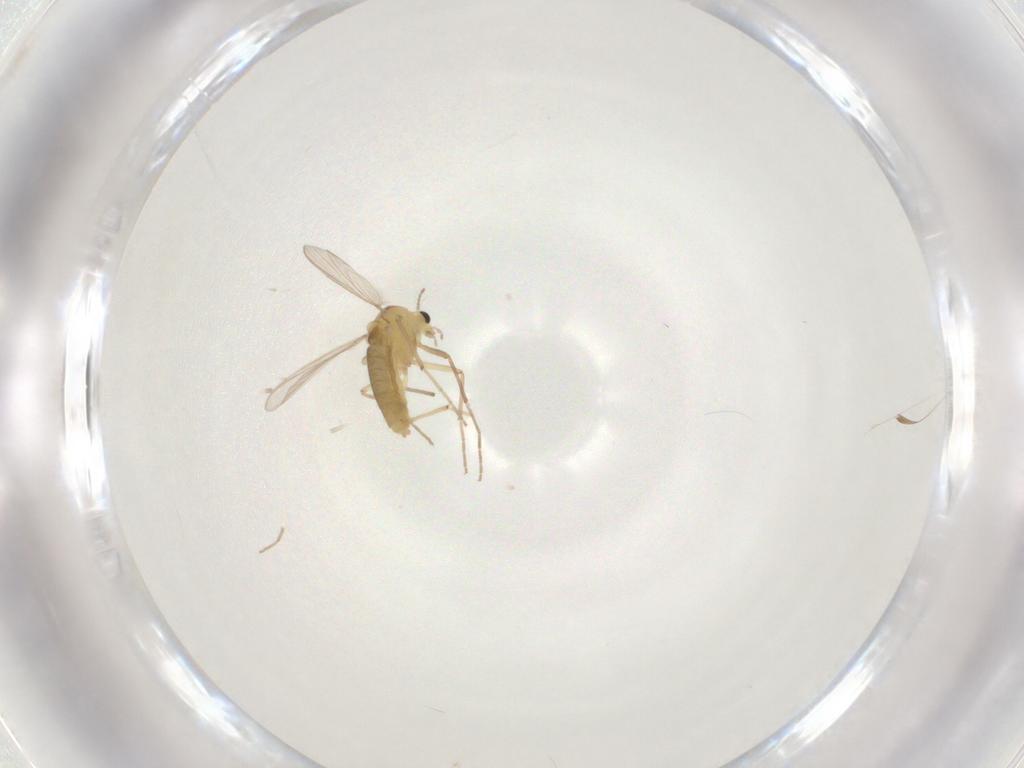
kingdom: Animalia
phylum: Arthropoda
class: Insecta
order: Diptera
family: Chironomidae
